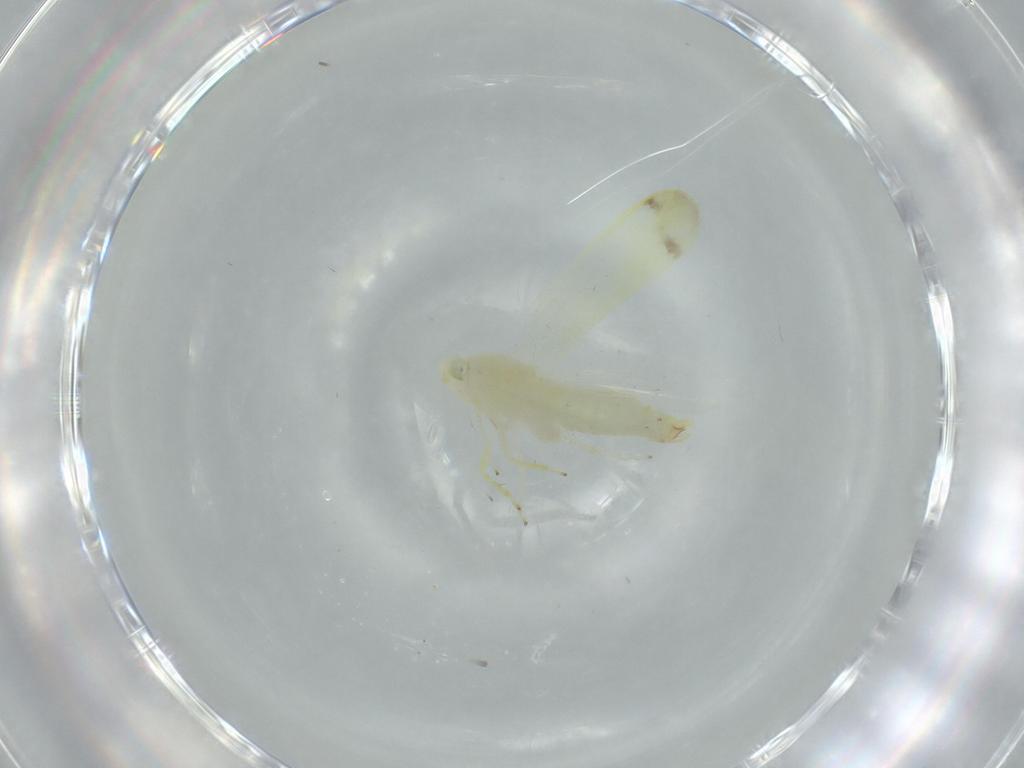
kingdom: Animalia
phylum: Arthropoda
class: Insecta
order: Hemiptera
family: Cicadellidae
